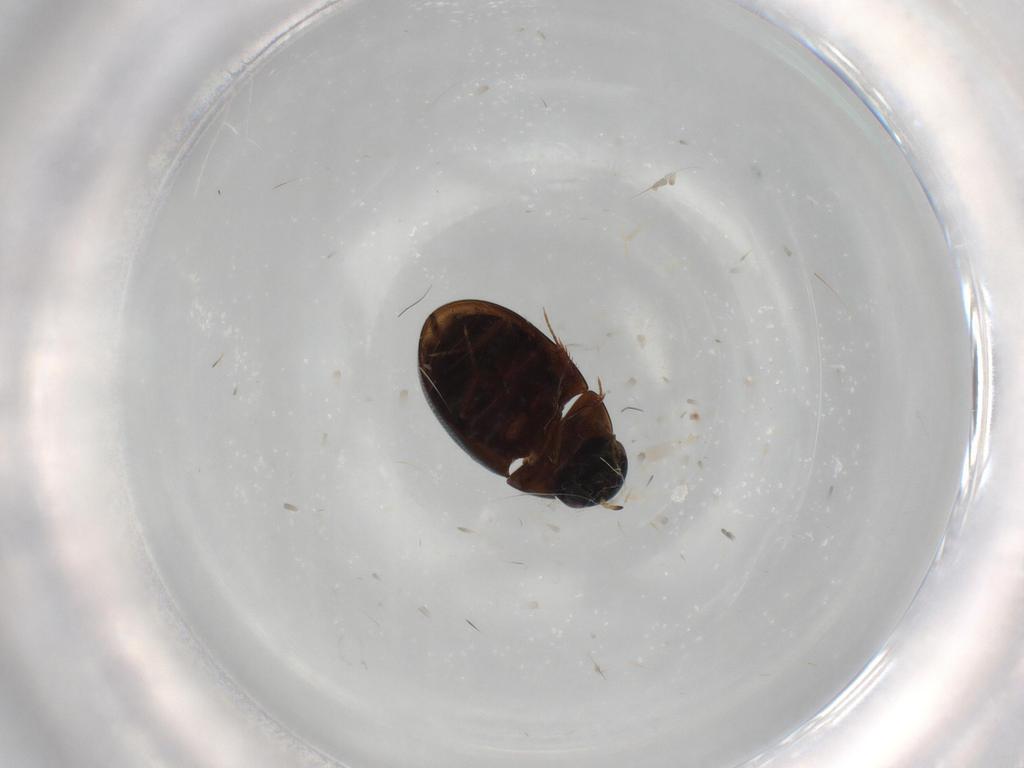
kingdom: Animalia
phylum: Arthropoda
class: Insecta
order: Coleoptera
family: Hydrophilidae
